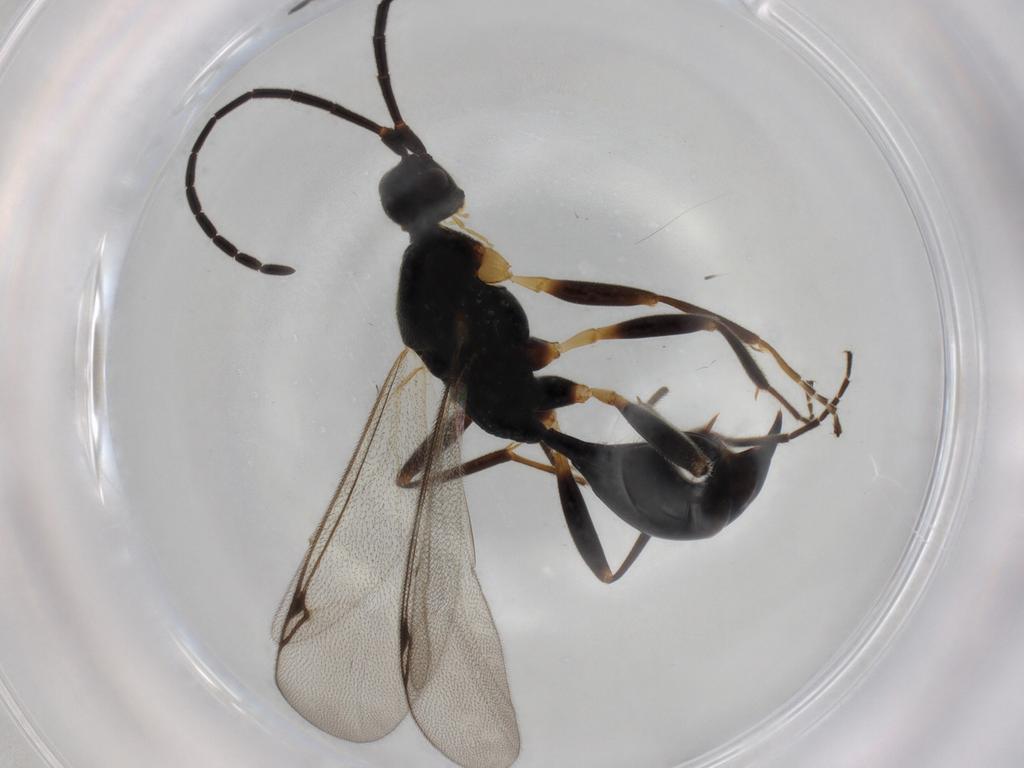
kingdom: Animalia
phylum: Arthropoda
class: Insecta
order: Hymenoptera
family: Proctotrupidae
